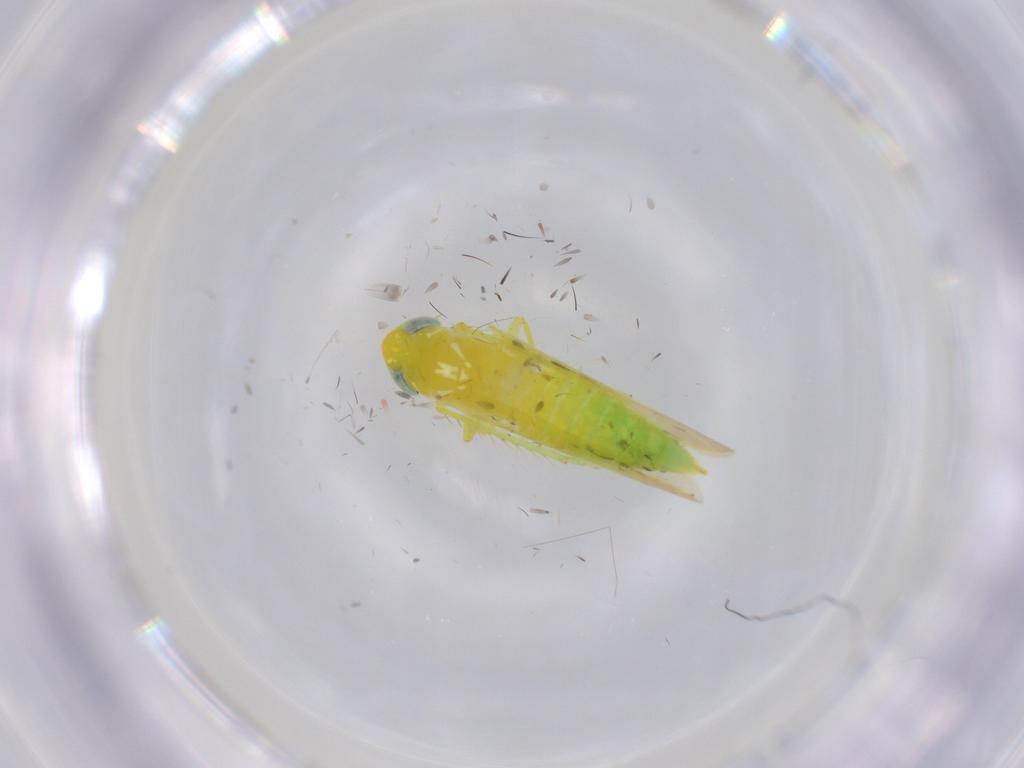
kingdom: Animalia
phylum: Arthropoda
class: Insecta
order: Hemiptera
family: Cicadellidae
